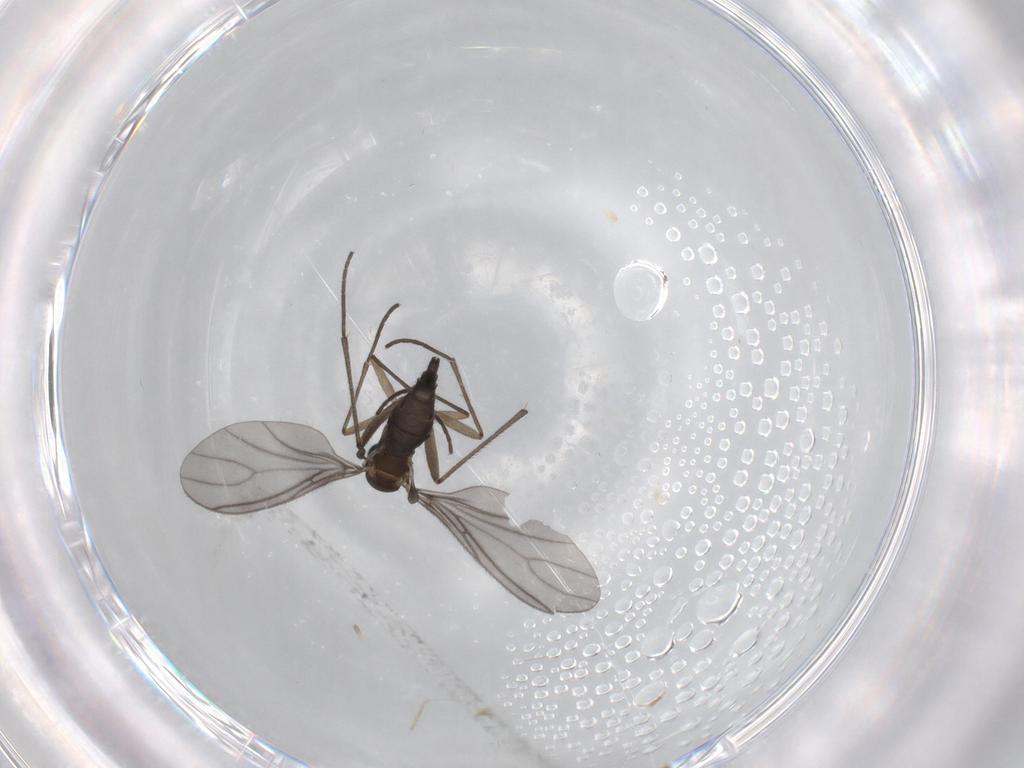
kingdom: Animalia
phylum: Arthropoda
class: Insecta
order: Diptera
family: Sciaridae
